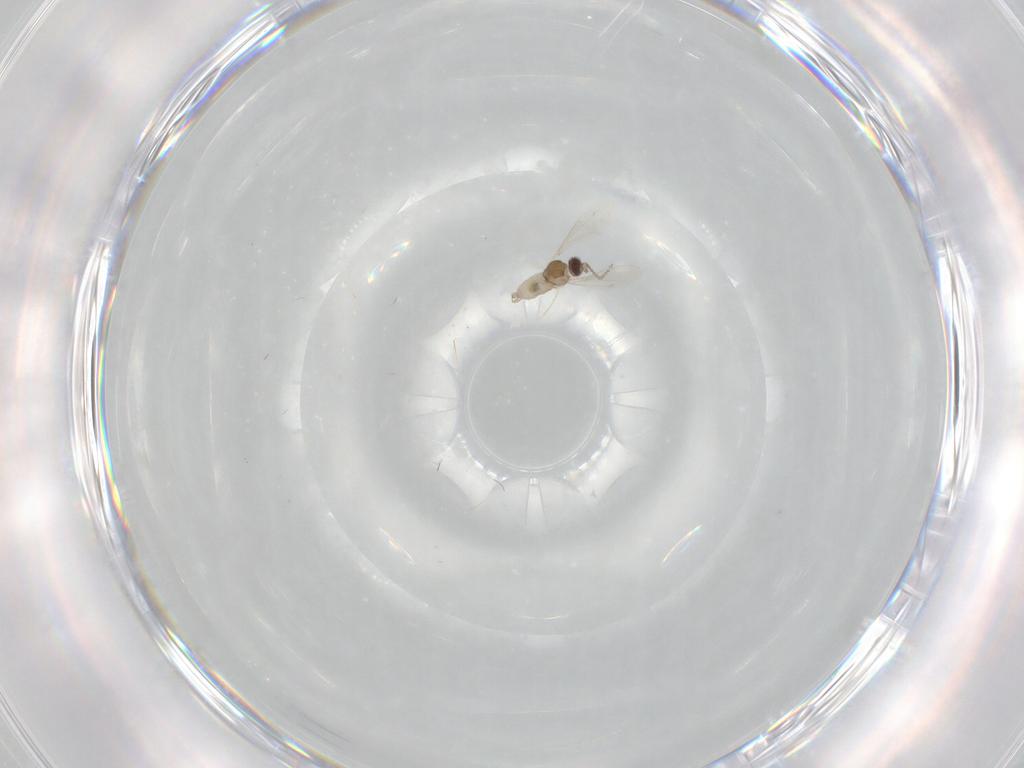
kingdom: Animalia
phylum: Arthropoda
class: Insecta
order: Diptera
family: Cecidomyiidae
